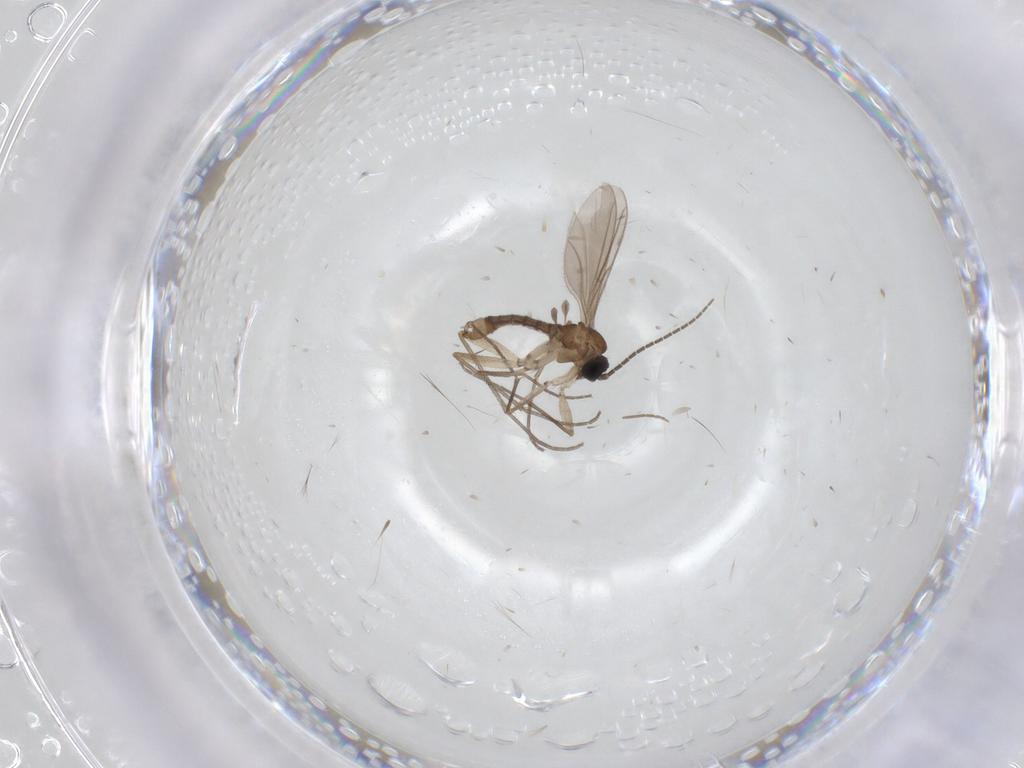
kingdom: Animalia
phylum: Arthropoda
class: Insecta
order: Diptera
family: Sciaridae
